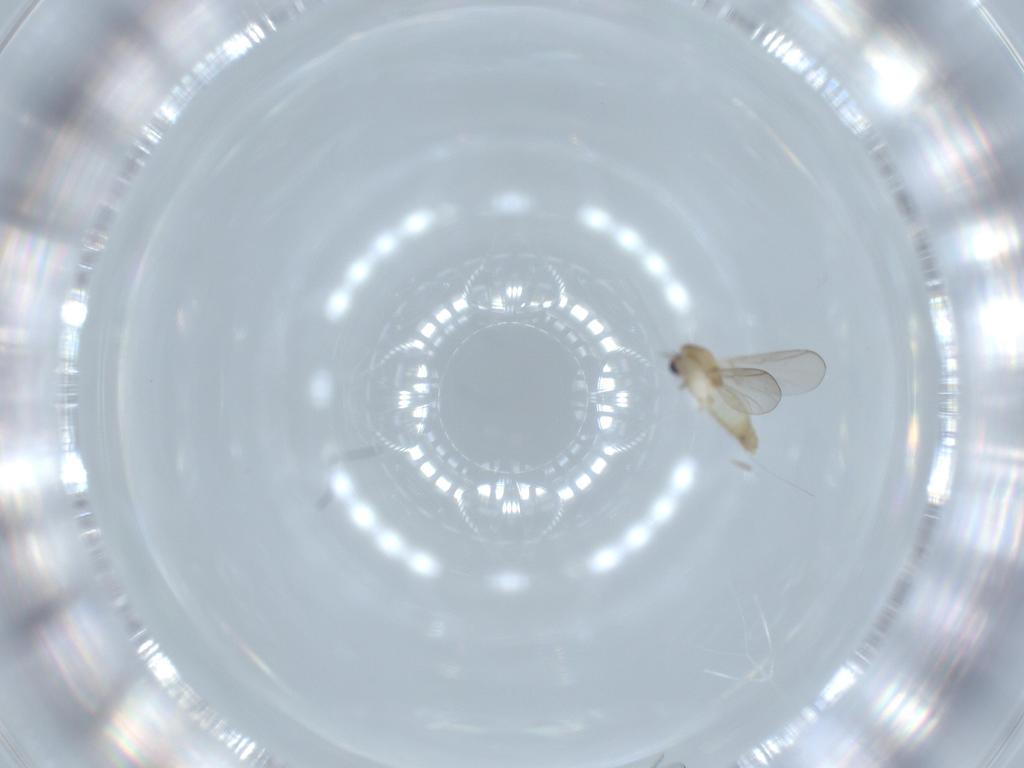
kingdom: Animalia
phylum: Arthropoda
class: Insecta
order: Diptera
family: Chironomidae
